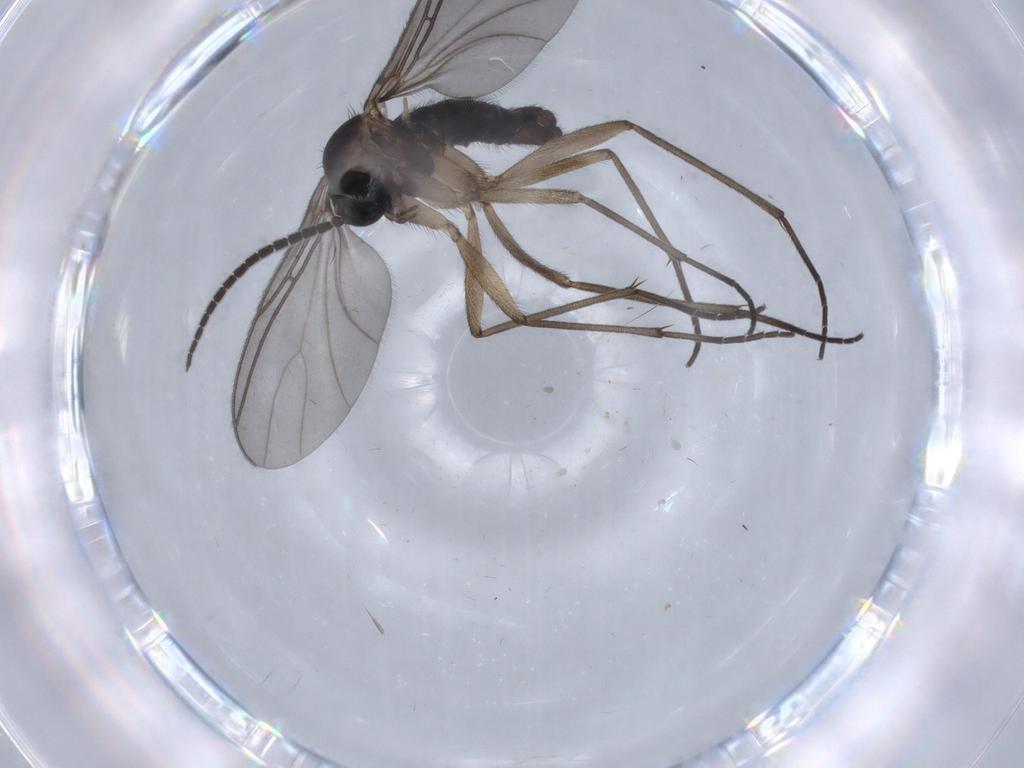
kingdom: Animalia
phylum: Arthropoda
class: Insecta
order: Diptera
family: Sciaridae
